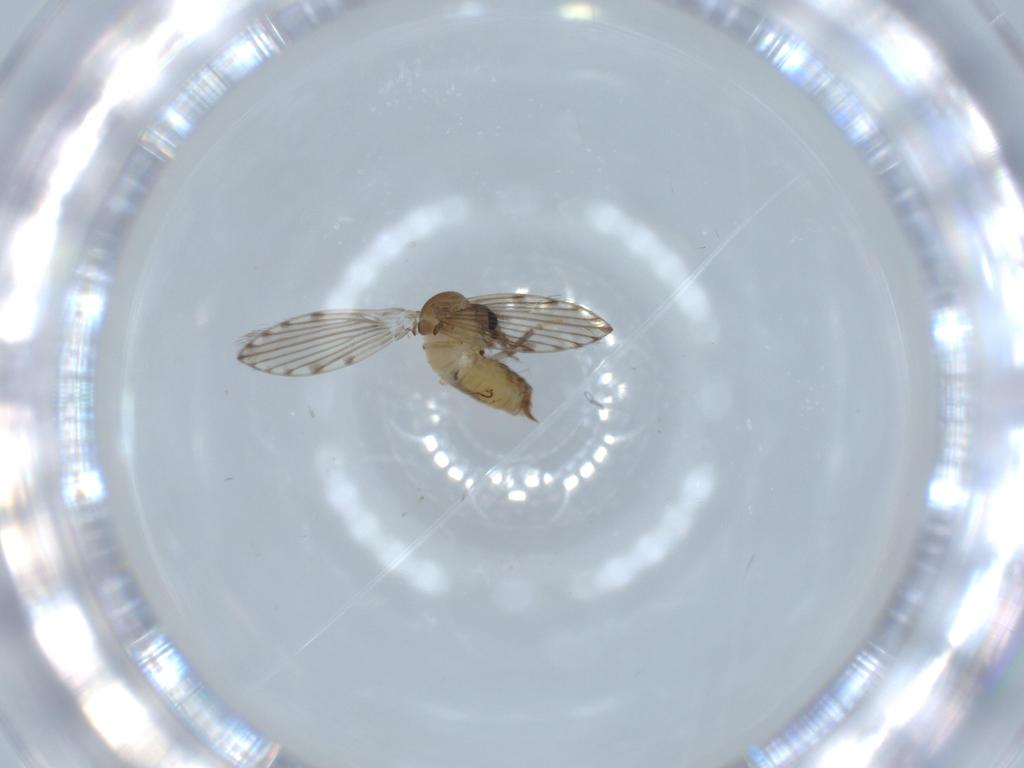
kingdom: Animalia
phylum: Arthropoda
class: Insecta
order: Diptera
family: Psychodidae
